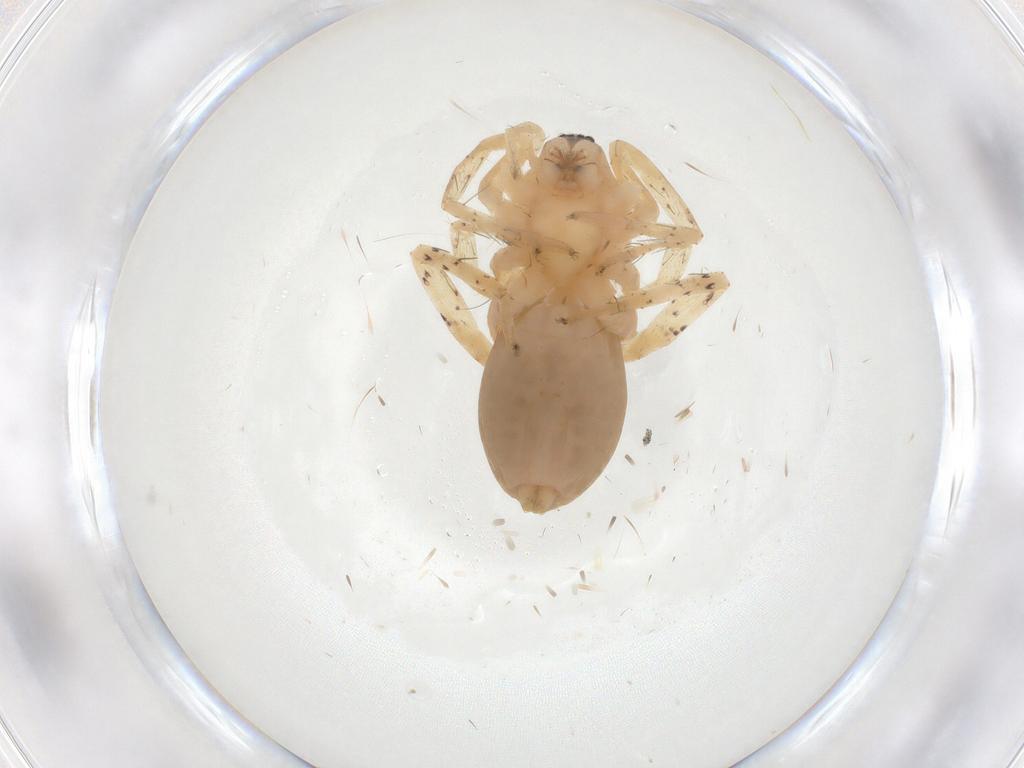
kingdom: Animalia
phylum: Arthropoda
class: Arachnida
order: Araneae
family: Anyphaenidae
